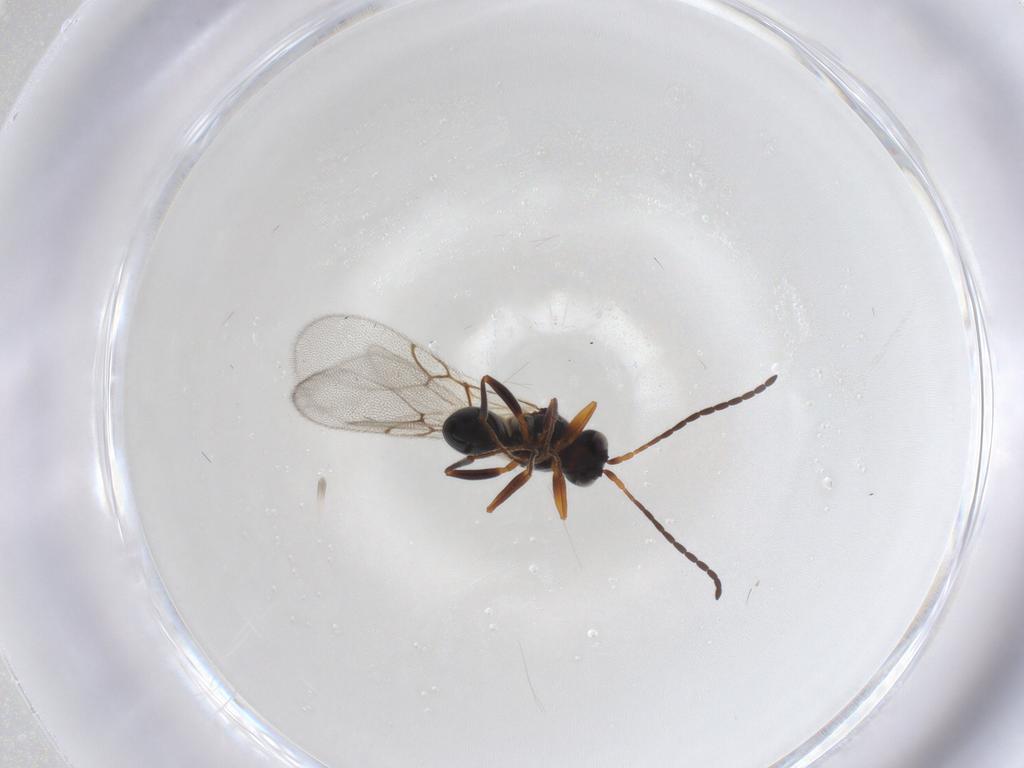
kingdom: Animalia
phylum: Arthropoda
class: Insecta
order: Hymenoptera
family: Figitidae
